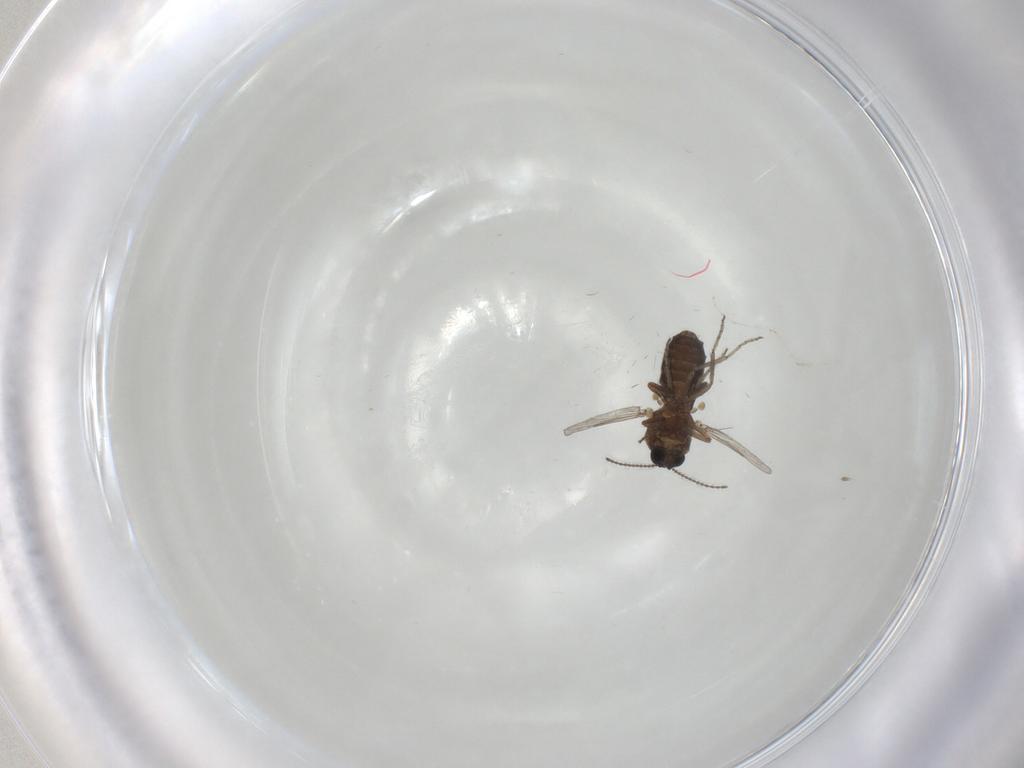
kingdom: Animalia
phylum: Arthropoda
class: Insecta
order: Diptera
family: Ceratopogonidae
